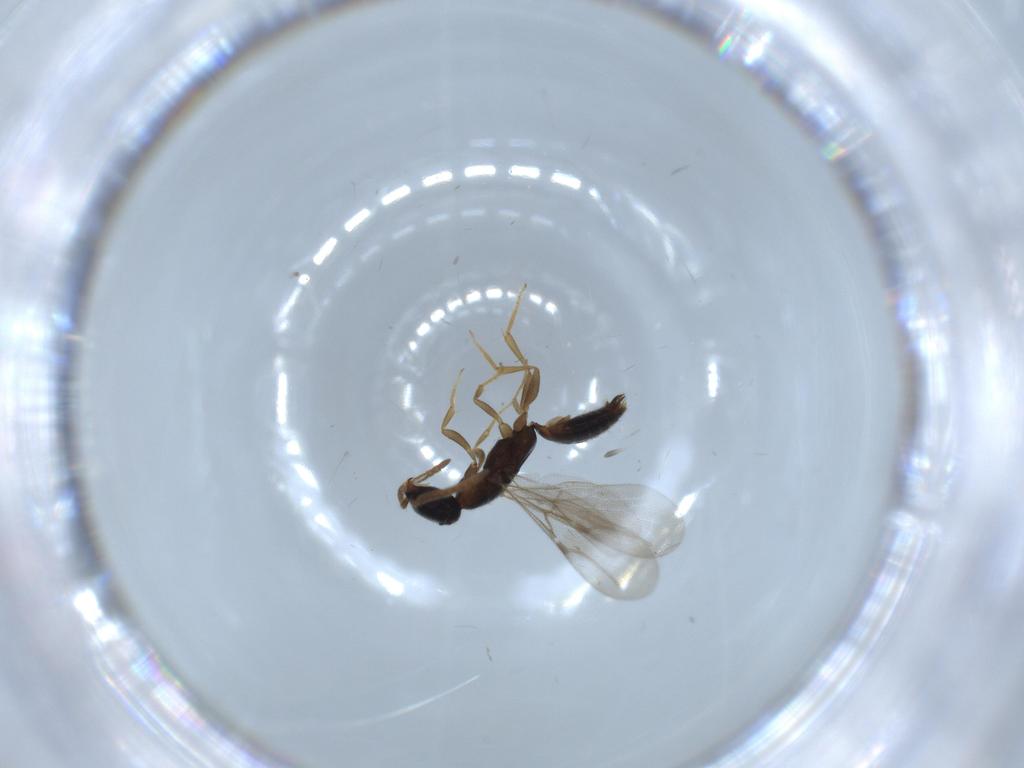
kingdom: Animalia
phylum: Arthropoda
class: Insecta
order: Hymenoptera
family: Bethylidae
